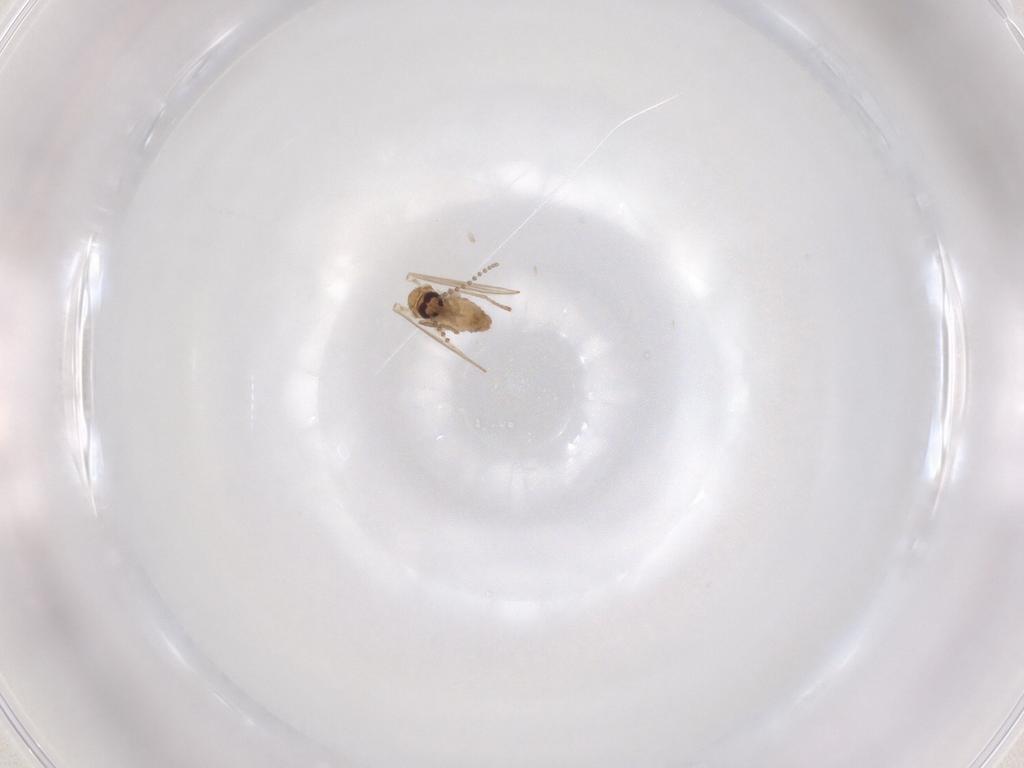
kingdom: Animalia
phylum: Arthropoda
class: Insecta
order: Diptera
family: Psychodidae
